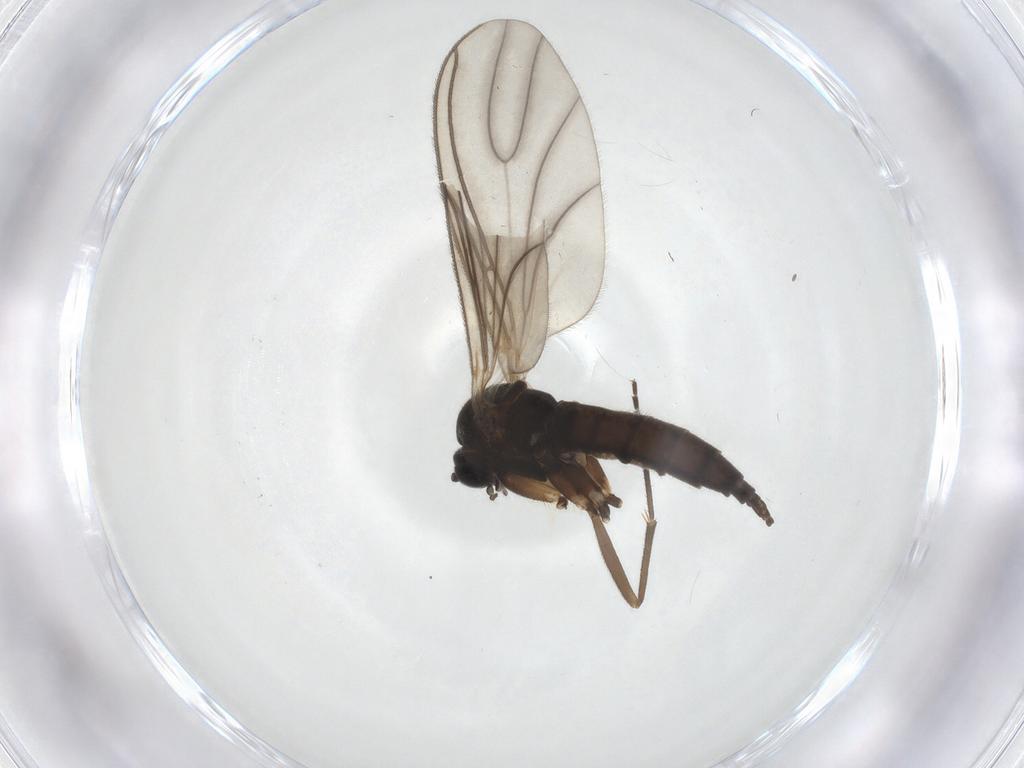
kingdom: Animalia
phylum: Arthropoda
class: Insecta
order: Diptera
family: Sciaridae
